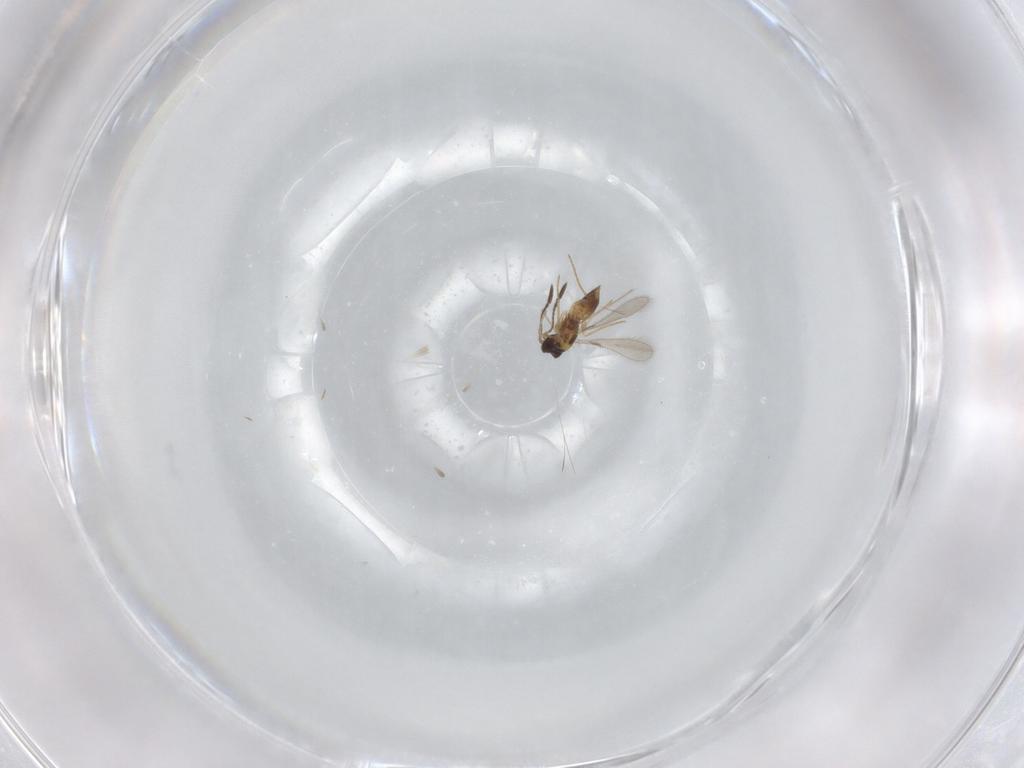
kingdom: Animalia
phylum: Arthropoda
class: Insecta
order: Hymenoptera
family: Mymaridae
